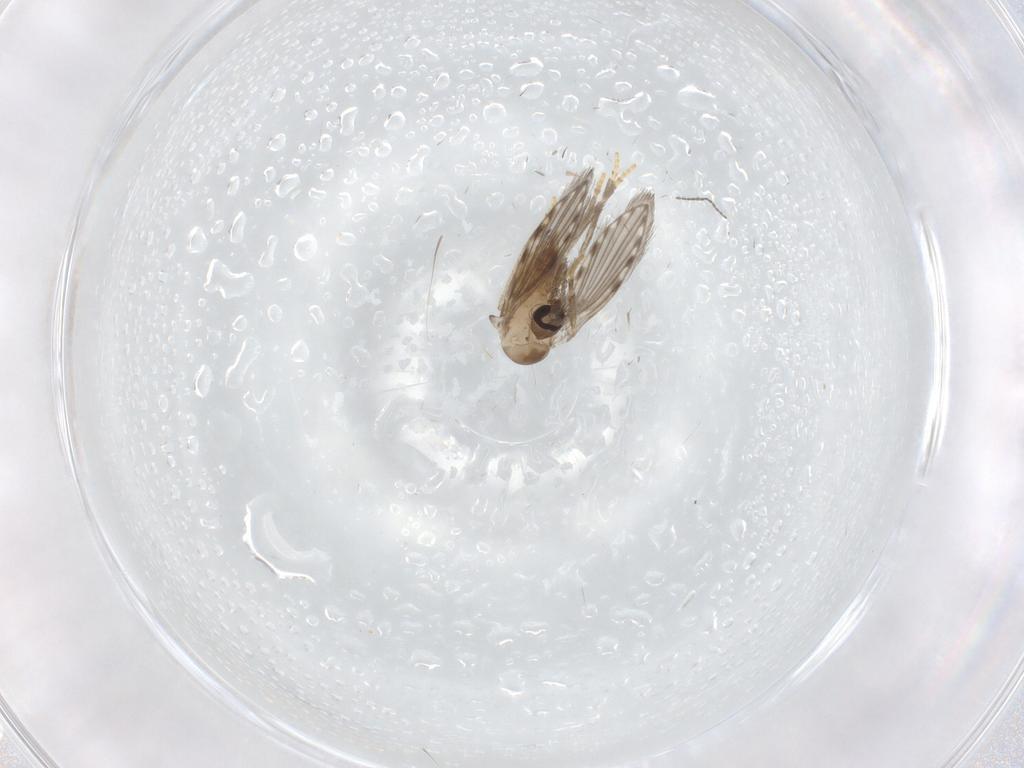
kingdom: Animalia
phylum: Arthropoda
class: Insecta
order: Diptera
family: Psychodidae
